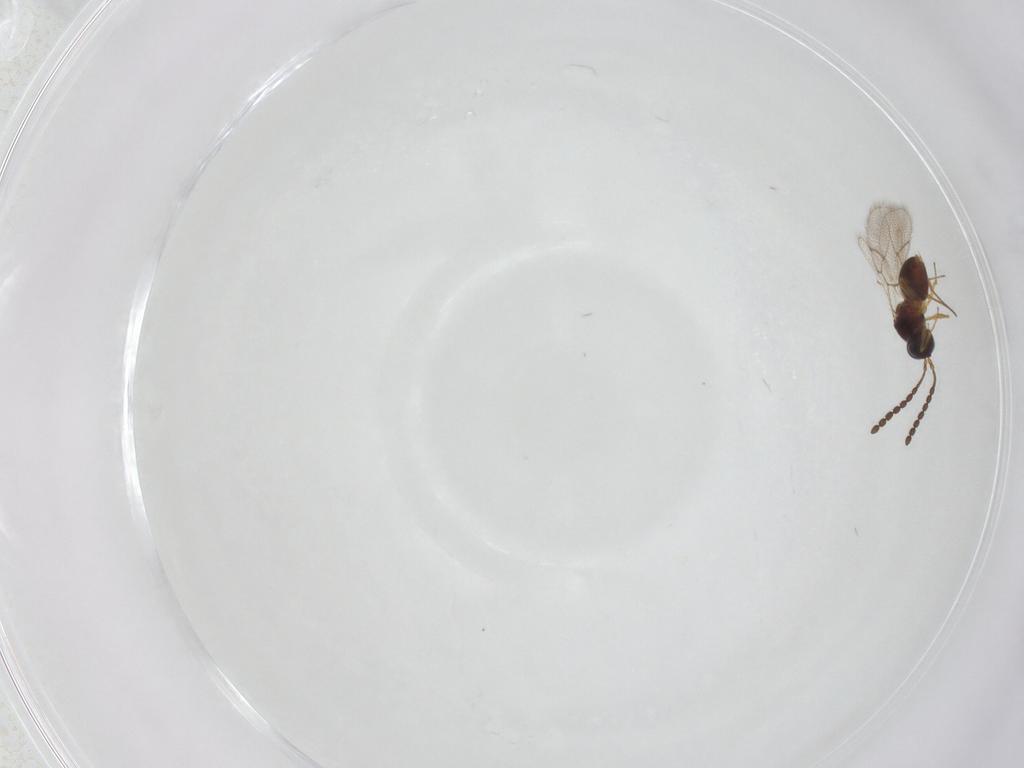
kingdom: Animalia
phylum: Arthropoda
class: Insecta
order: Hymenoptera
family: Figitidae
